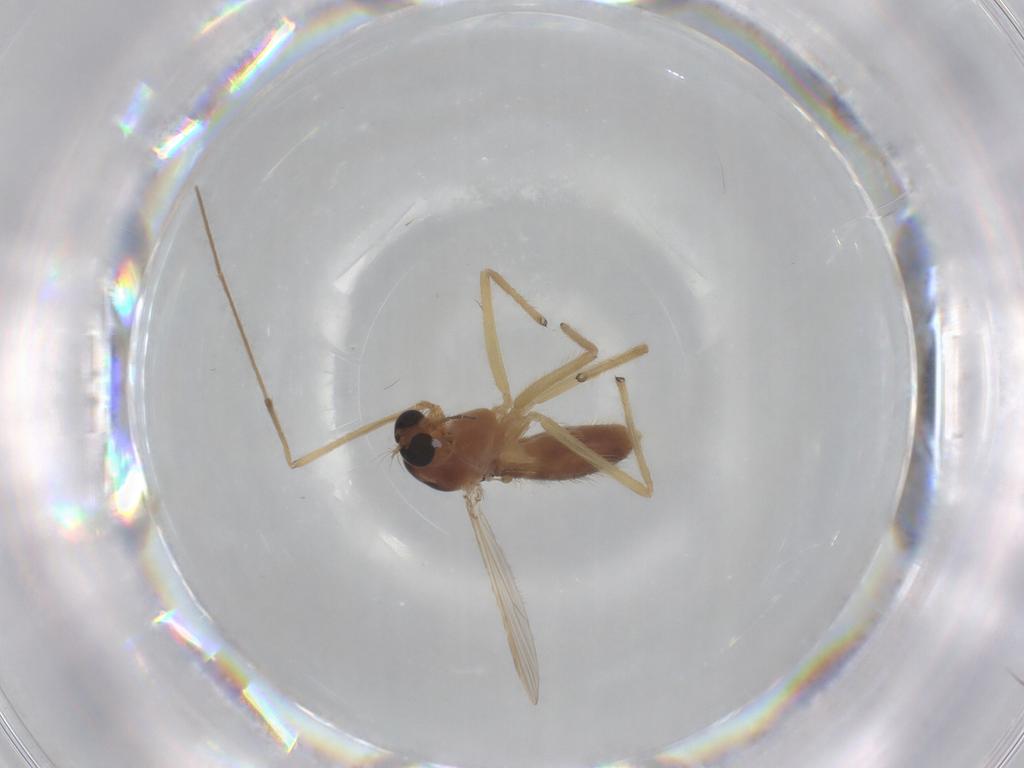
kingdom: Animalia
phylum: Arthropoda
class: Insecta
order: Diptera
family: Chironomidae
